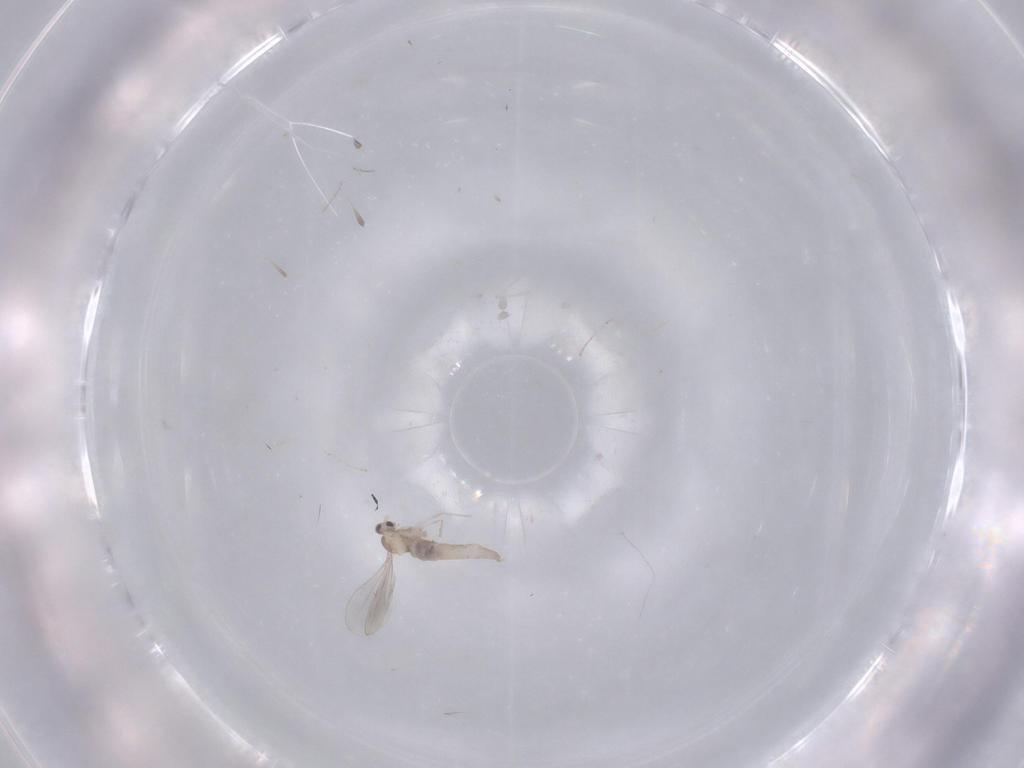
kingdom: Animalia
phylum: Arthropoda
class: Insecta
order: Diptera
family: Cecidomyiidae
